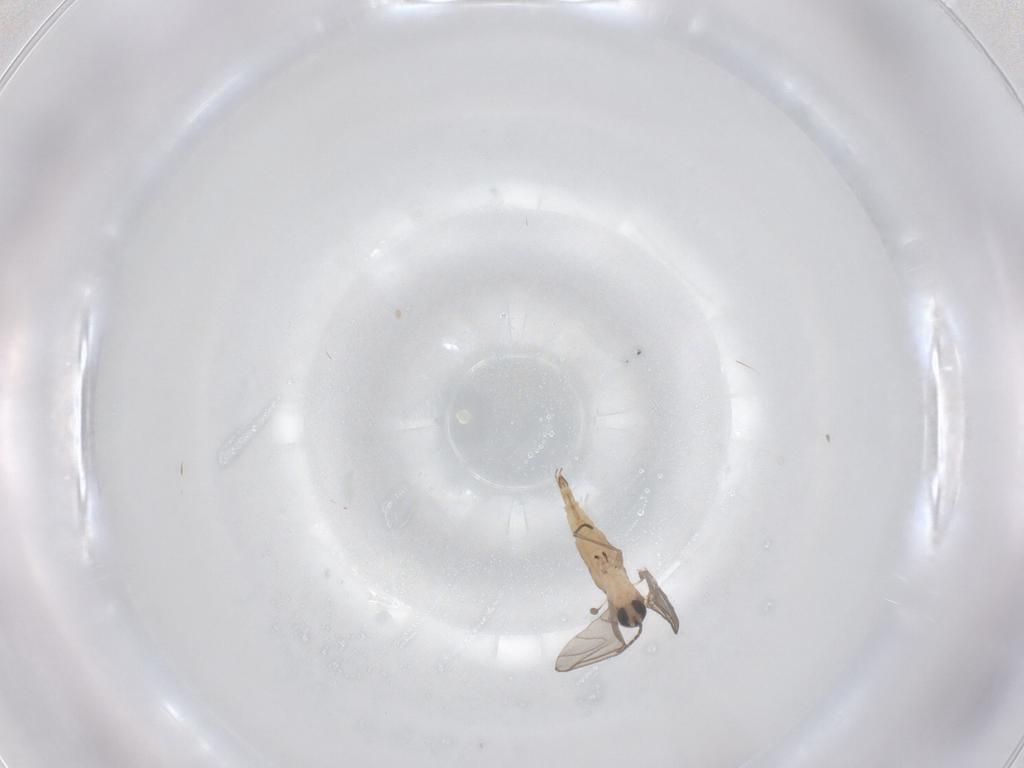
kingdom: Animalia
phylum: Arthropoda
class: Insecta
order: Diptera
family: Sciaridae
